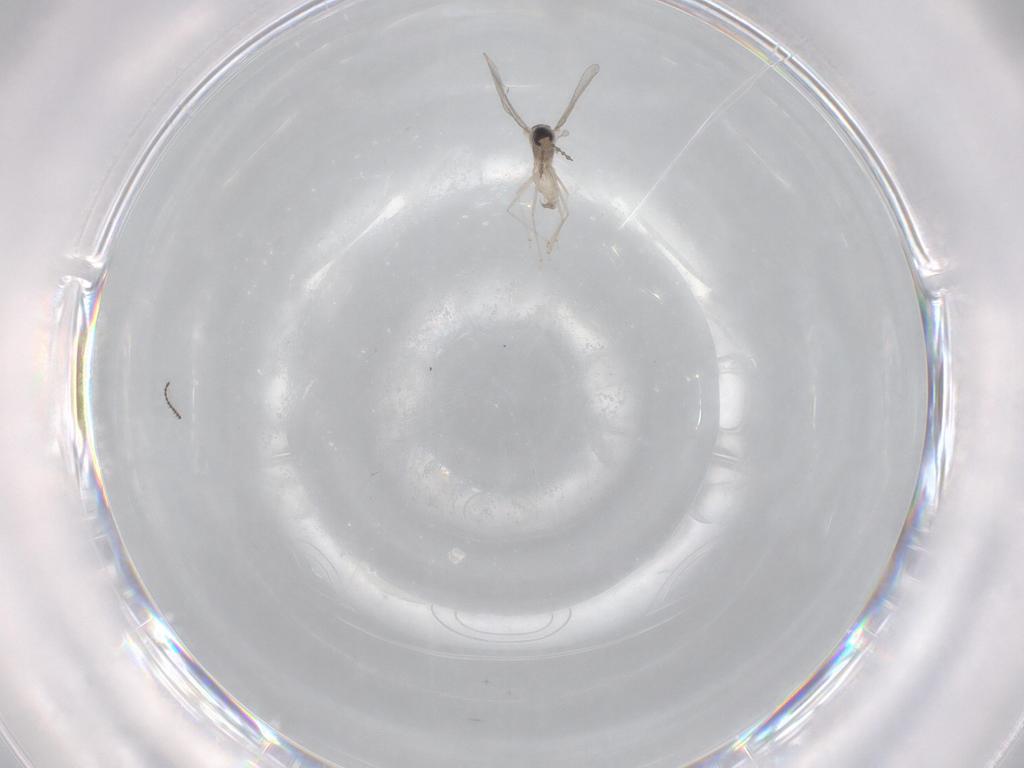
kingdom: Animalia
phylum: Arthropoda
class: Insecta
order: Diptera
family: Cecidomyiidae
